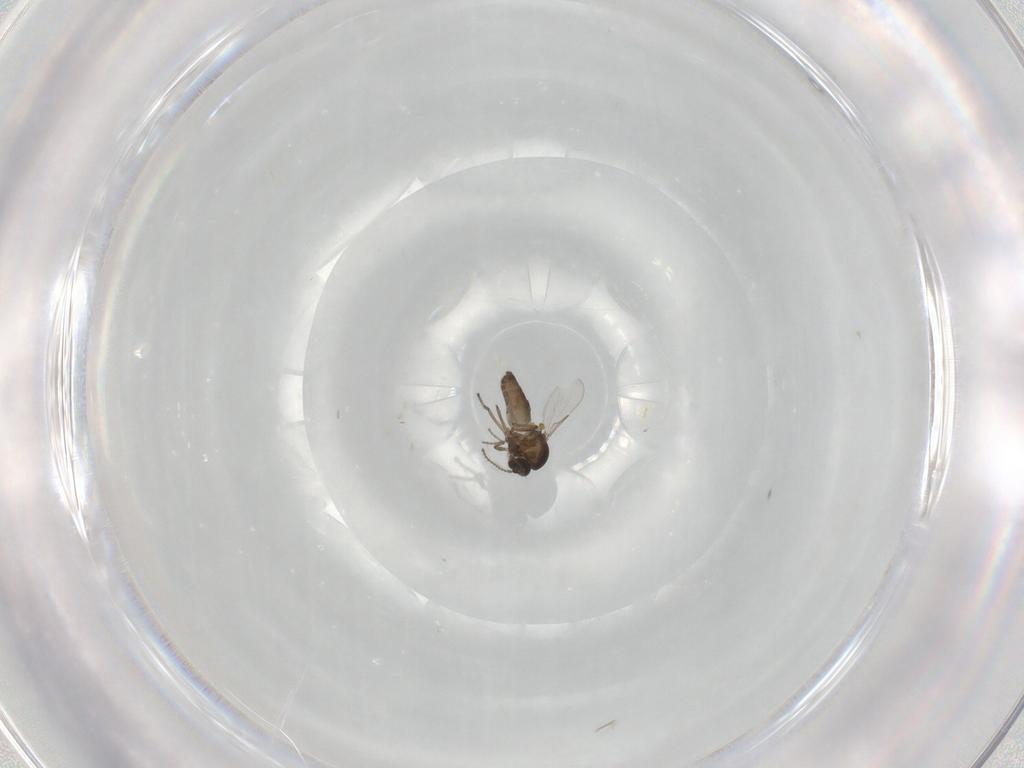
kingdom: Animalia
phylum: Arthropoda
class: Insecta
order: Diptera
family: Ceratopogonidae
